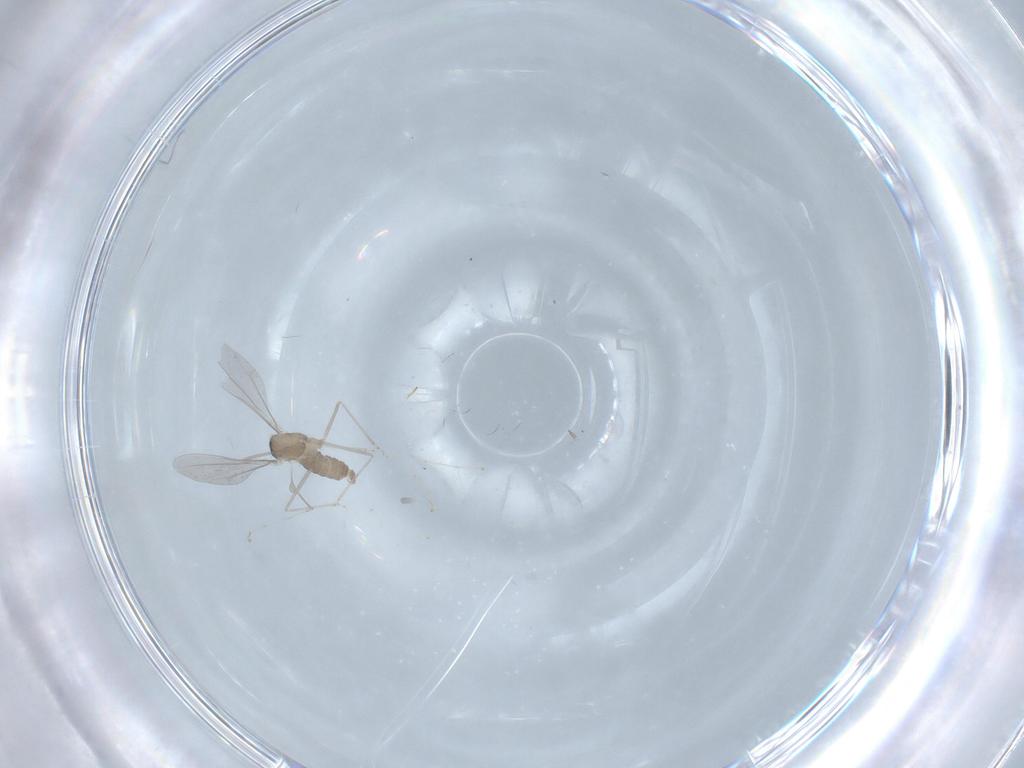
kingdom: Animalia
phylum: Arthropoda
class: Insecta
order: Diptera
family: Cecidomyiidae
